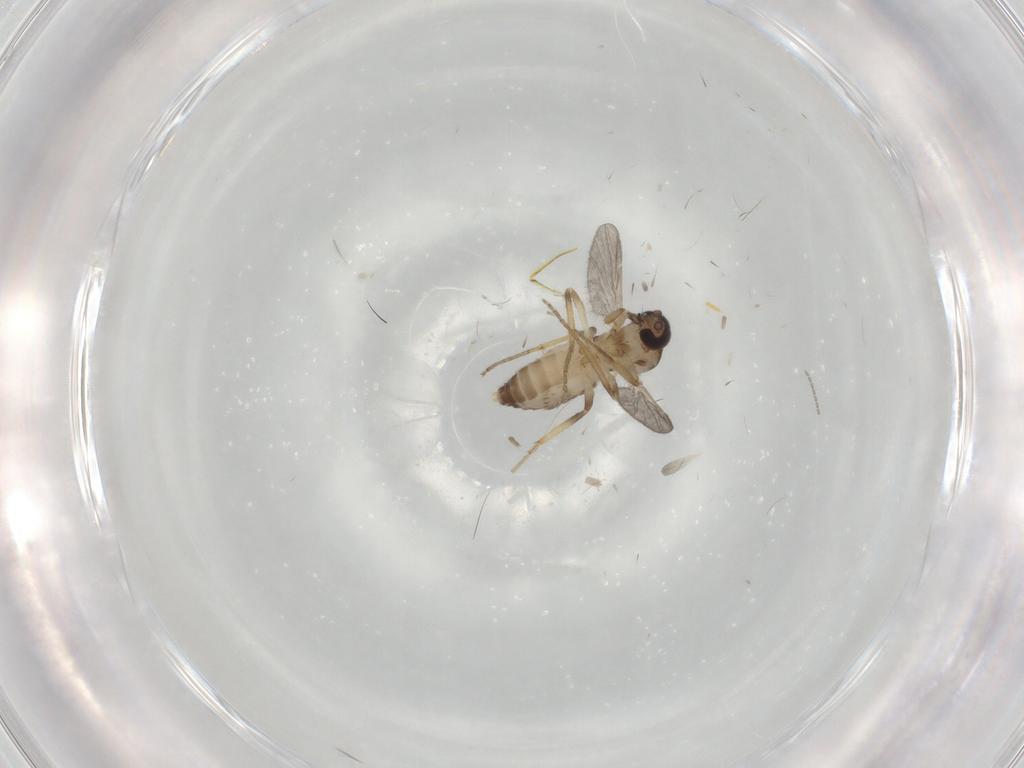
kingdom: Animalia
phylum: Arthropoda
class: Insecta
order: Diptera
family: Ceratopogonidae
